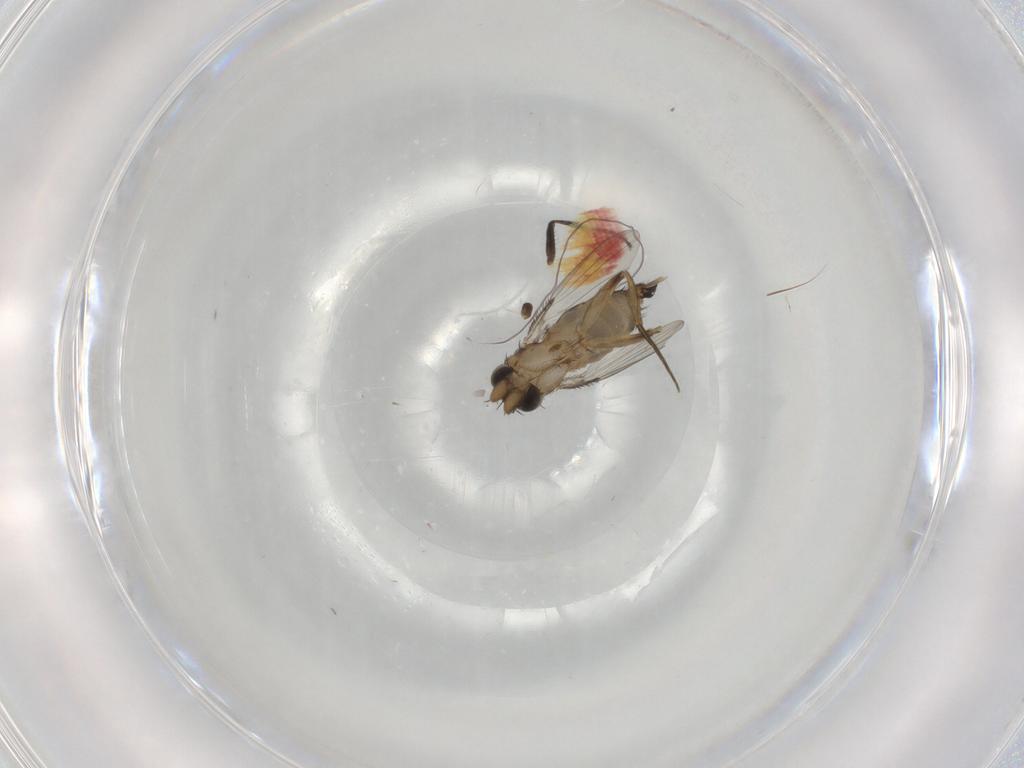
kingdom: Animalia
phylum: Arthropoda
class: Insecta
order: Diptera
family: Milichiidae
